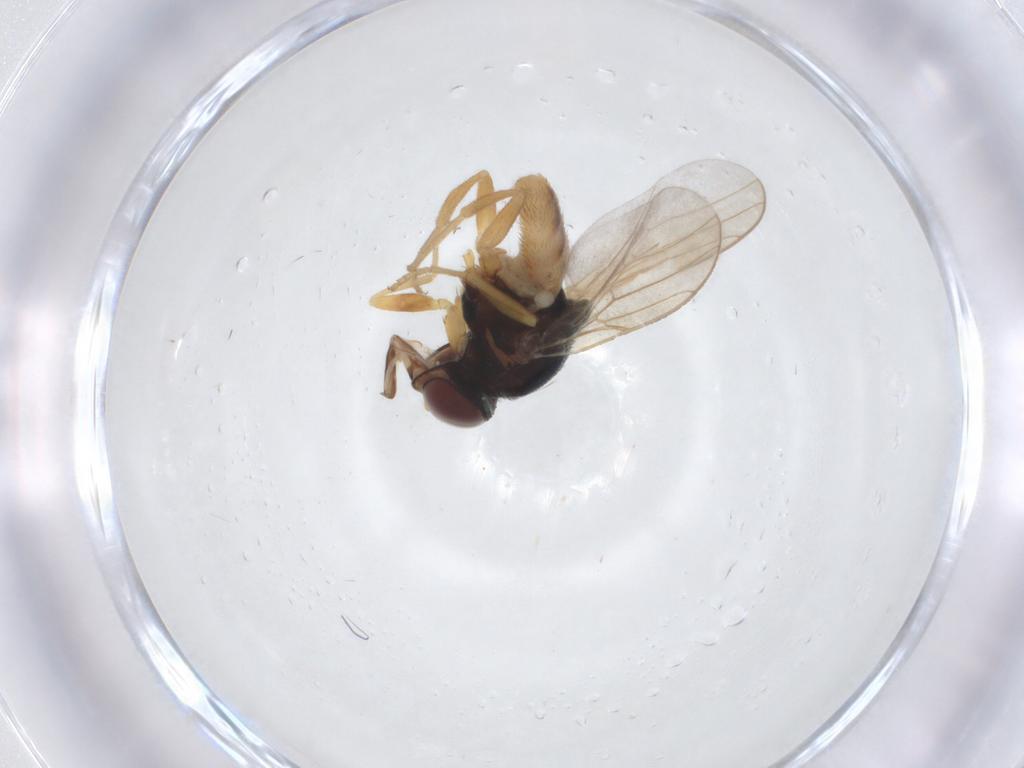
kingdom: Animalia
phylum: Arthropoda
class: Insecta
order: Diptera
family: Chloropidae
